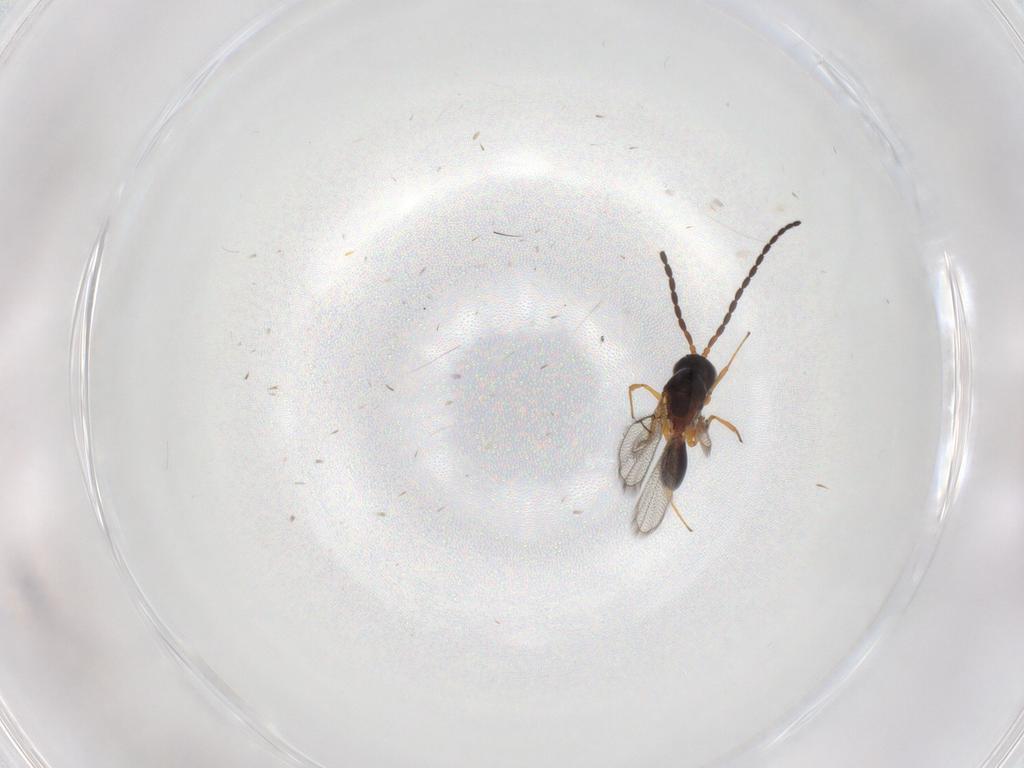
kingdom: Animalia
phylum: Arthropoda
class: Insecta
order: Hymenoptera
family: Figitidae
